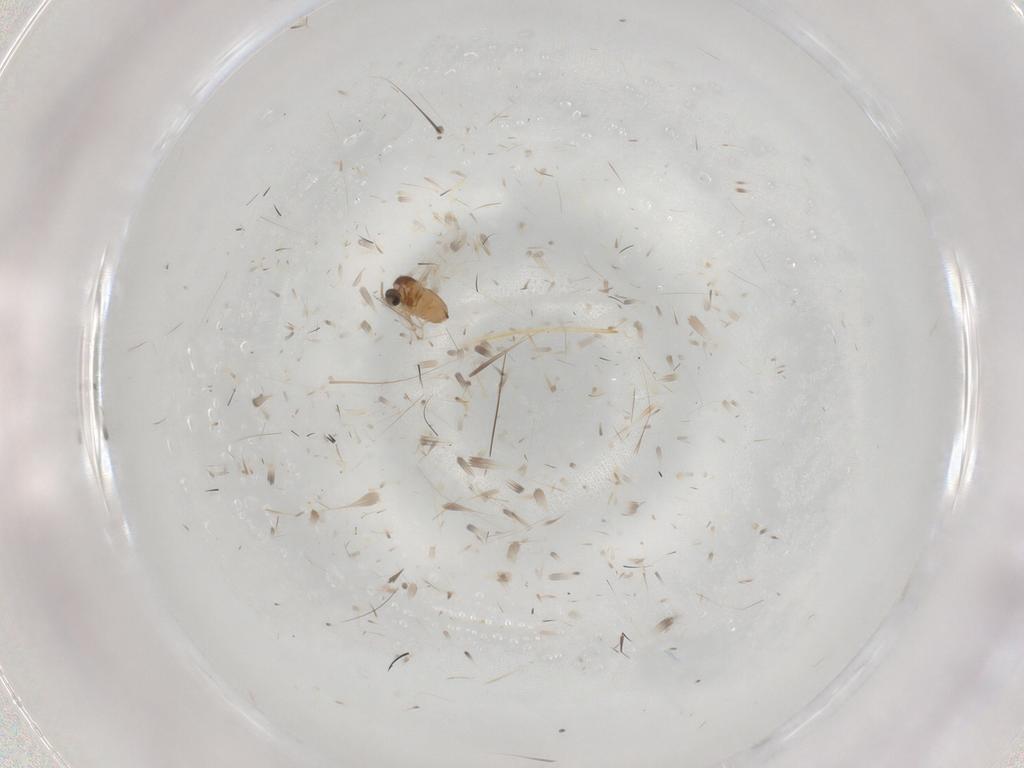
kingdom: Animalia
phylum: Arthropoda
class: Insecta
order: Diptera
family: Cecidomyiidae
